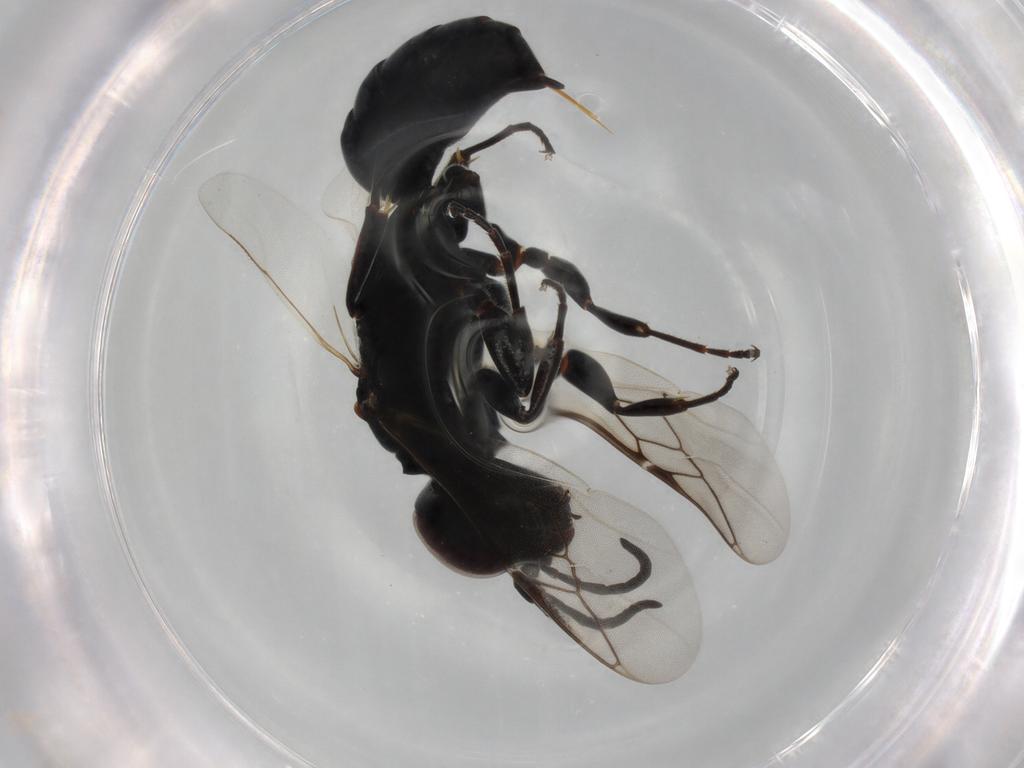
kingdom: Animalia
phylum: Arthropoda
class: Insecta
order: Hymenoptera
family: Crabronidae
